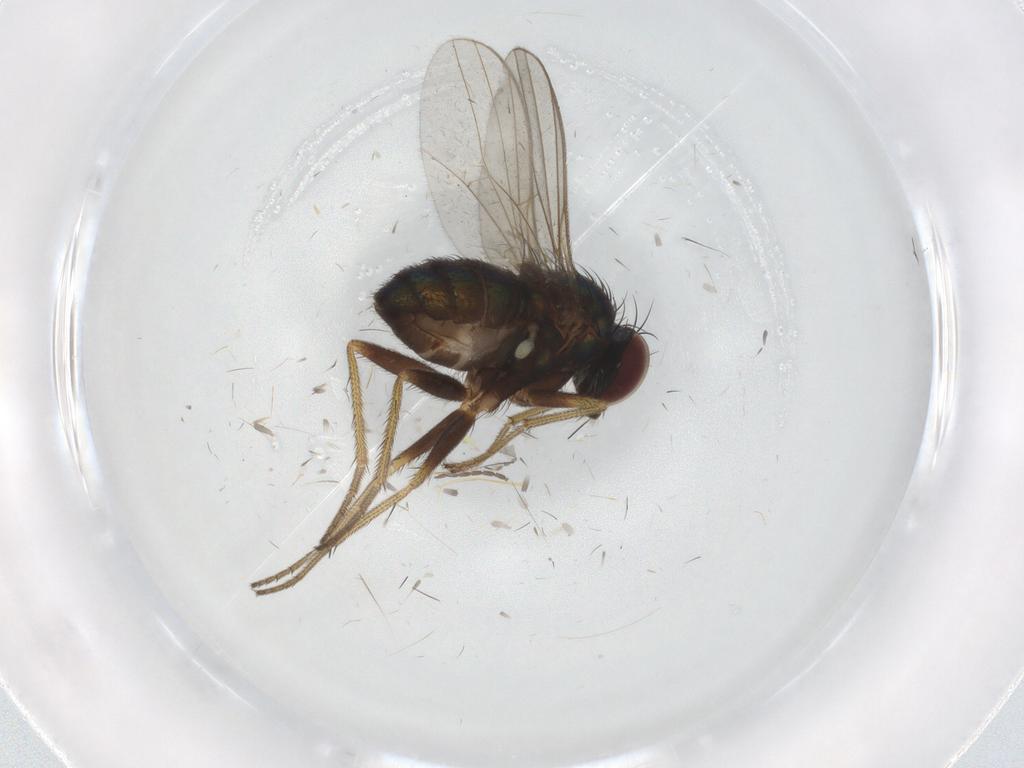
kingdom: Animalia
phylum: Arthropoda
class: Insecta
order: Diptera
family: Dolichopodidae
